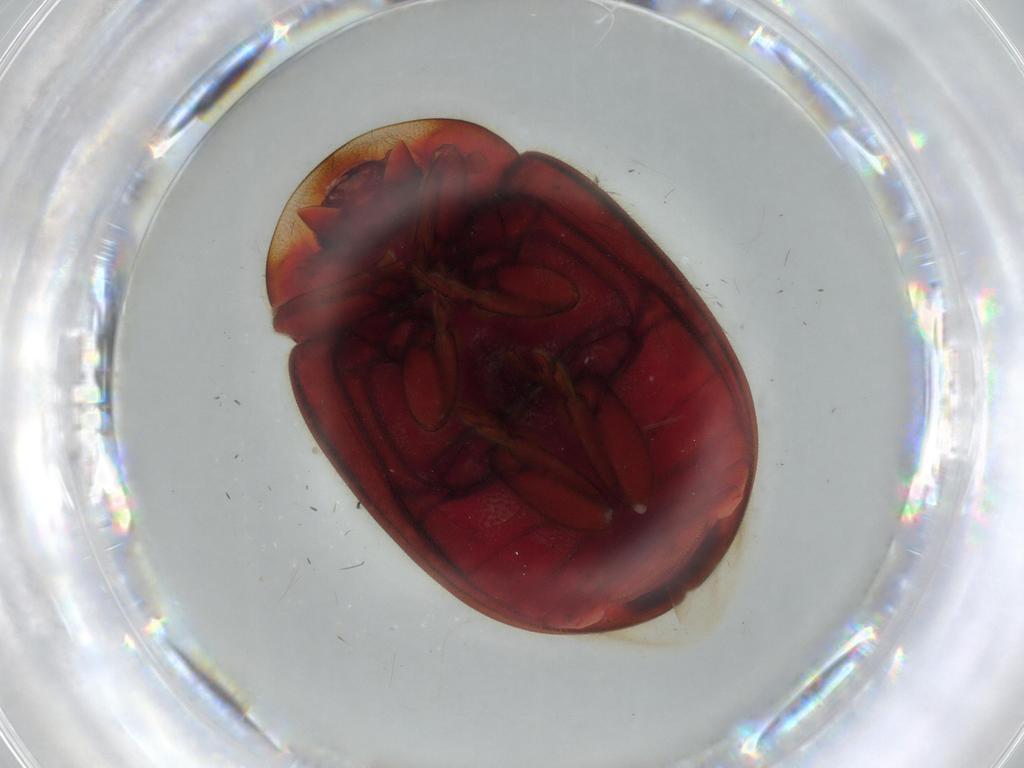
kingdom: Animalia
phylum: Arthropoda
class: Insecta
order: Coleoptera
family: Coccinellidae
